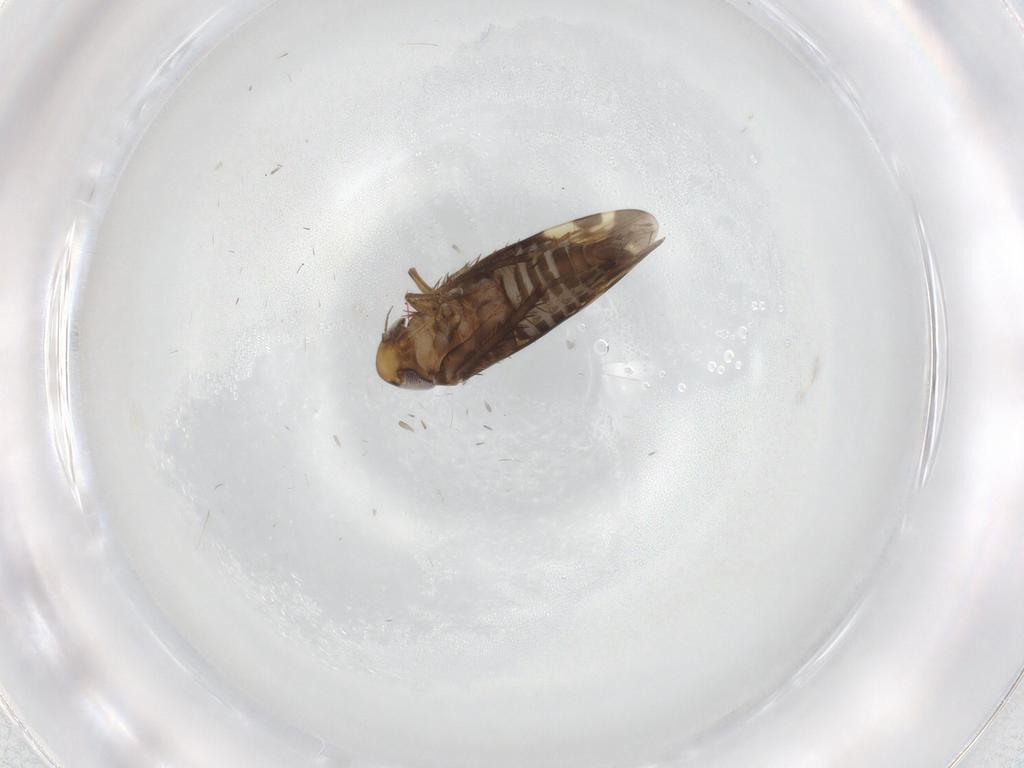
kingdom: Animalia
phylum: Arthropoda
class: Insecta
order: Hemiptera
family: Cicadellidae
